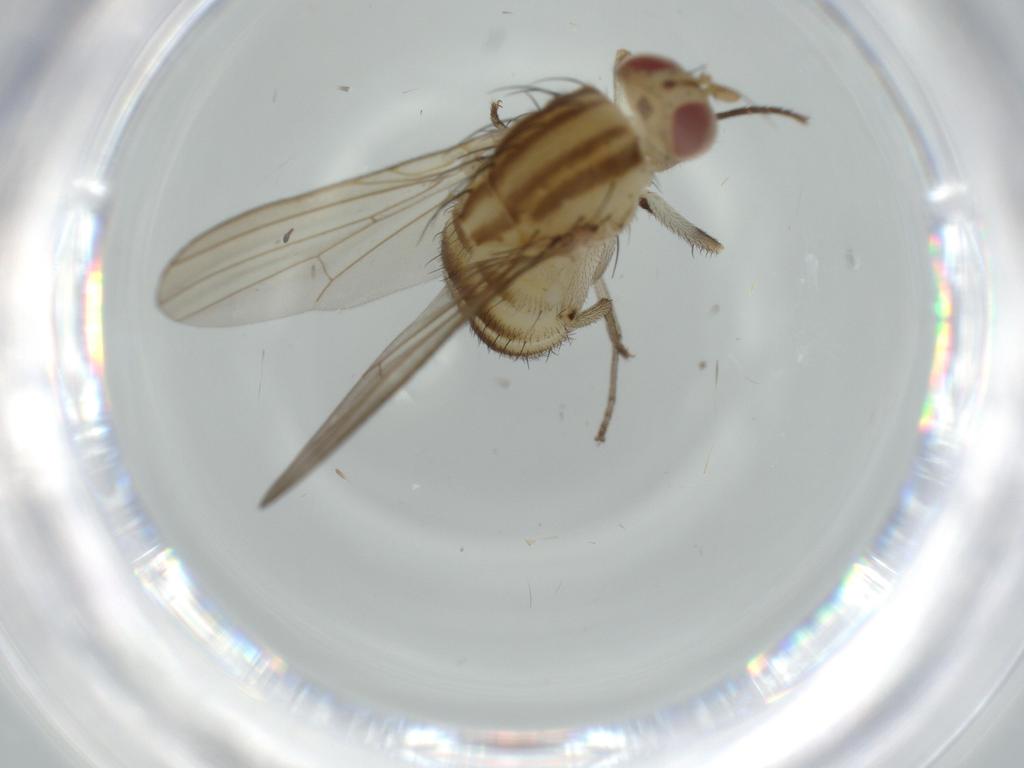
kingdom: Animalia
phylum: Arthropoda
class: Insecta
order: Diptera
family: Lauxaniidae
